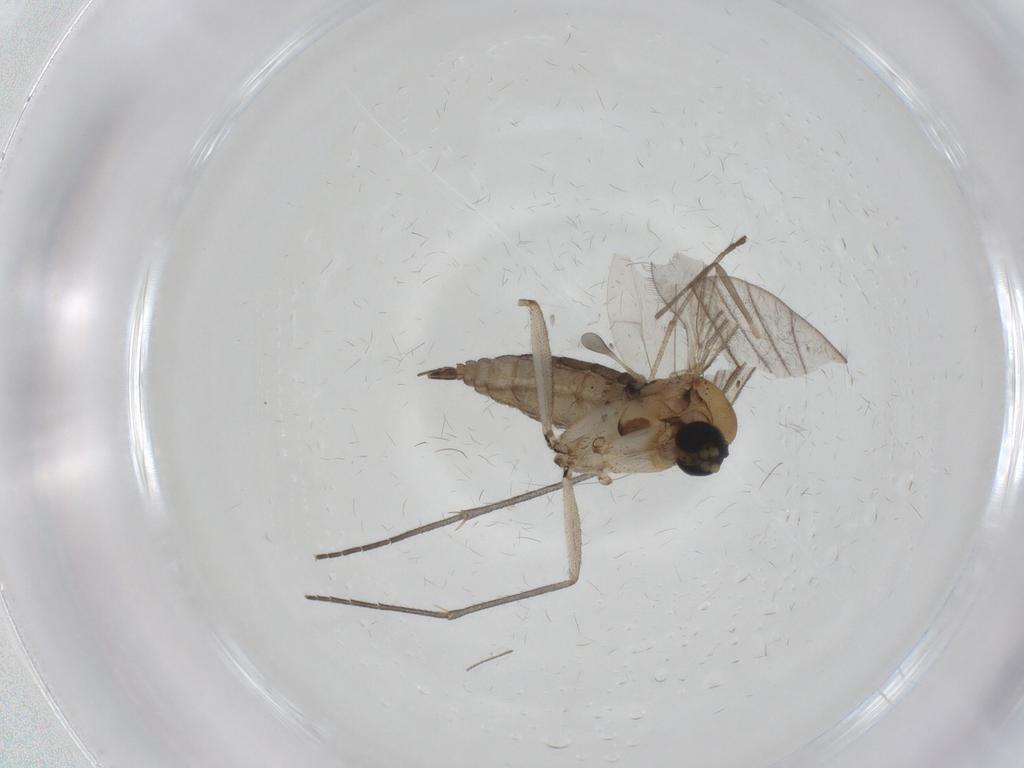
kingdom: Animalia
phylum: Arthropoda
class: Insecta
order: Diptera
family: Sciaridae
